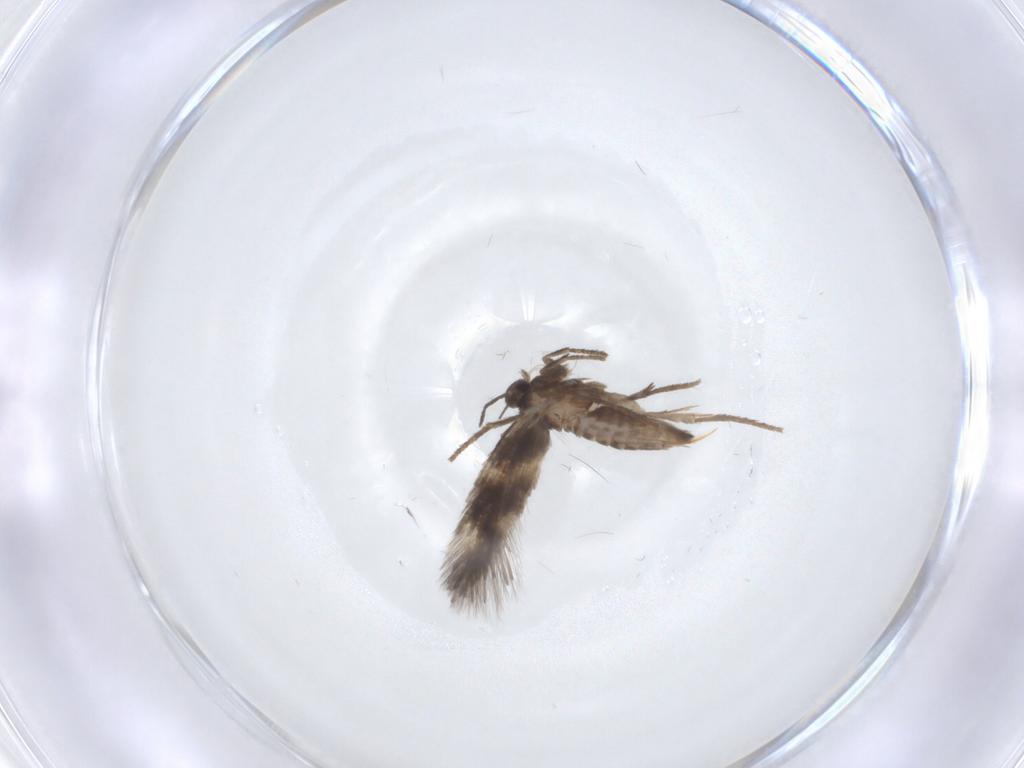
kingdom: Animalia
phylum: Arthropoda
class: Insecta
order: Lepidoptera
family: Heliozelidae
